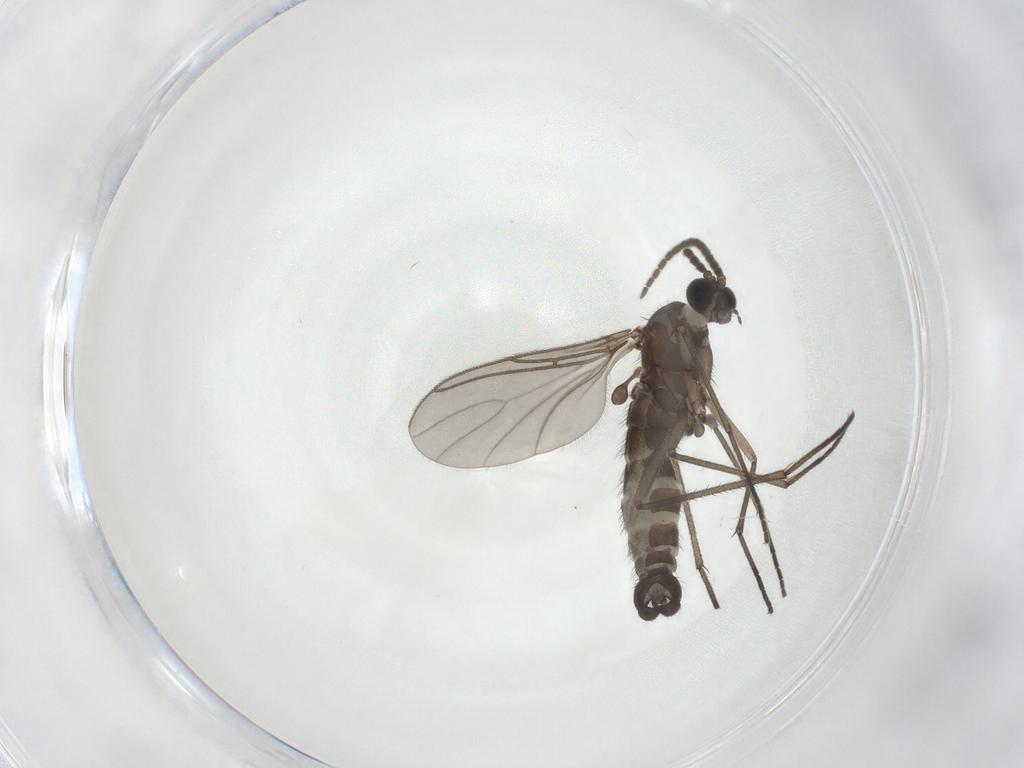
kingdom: Animalia
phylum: Arthropoda
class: Insecta
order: Diptera
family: Sciaridae
